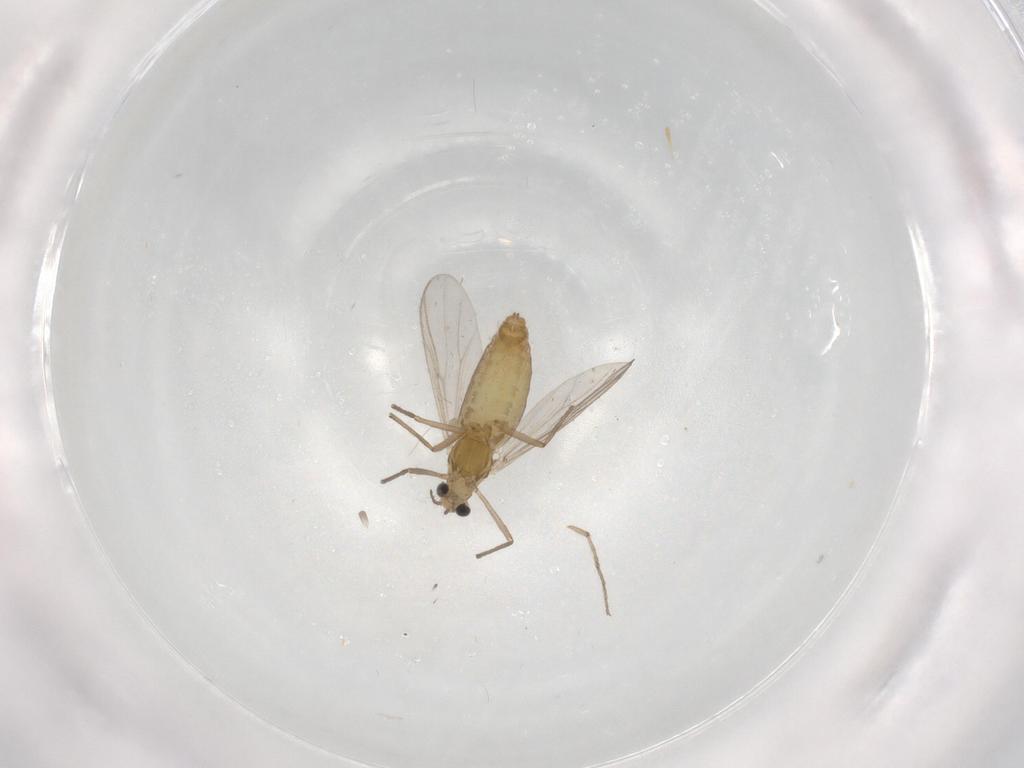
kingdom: Animalia
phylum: Arthropoda
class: Insecta
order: Diptera
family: Chironomidae
